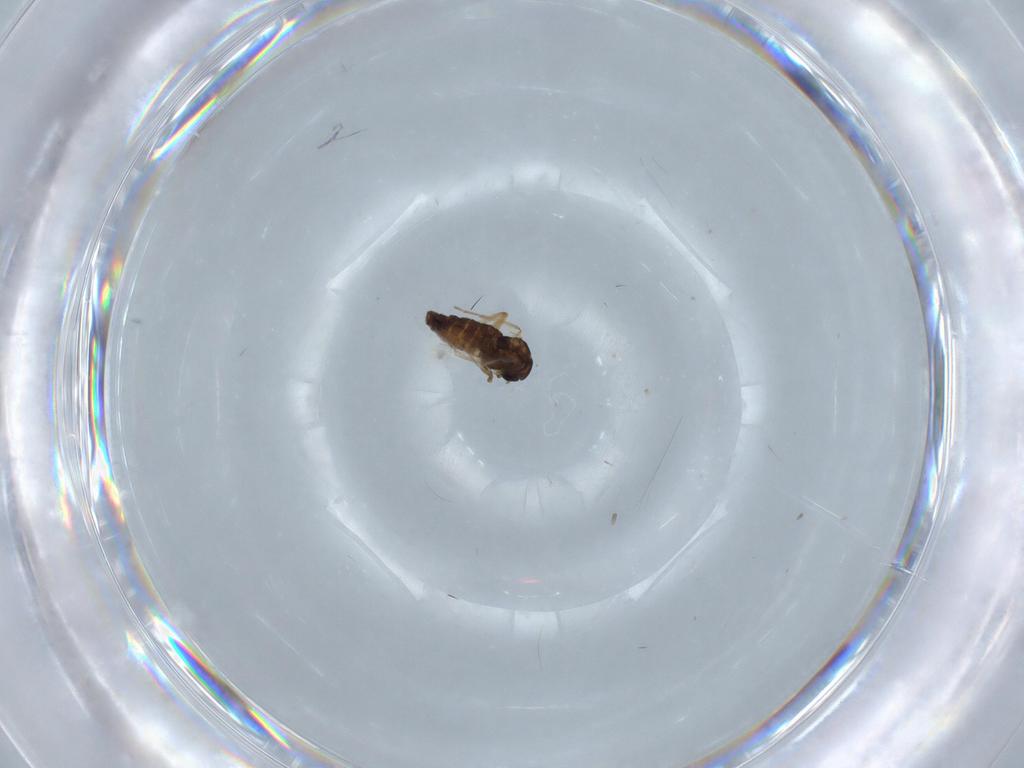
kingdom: Animalia
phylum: Arthropoda
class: Insecta
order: Diptera
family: Chironomidae
